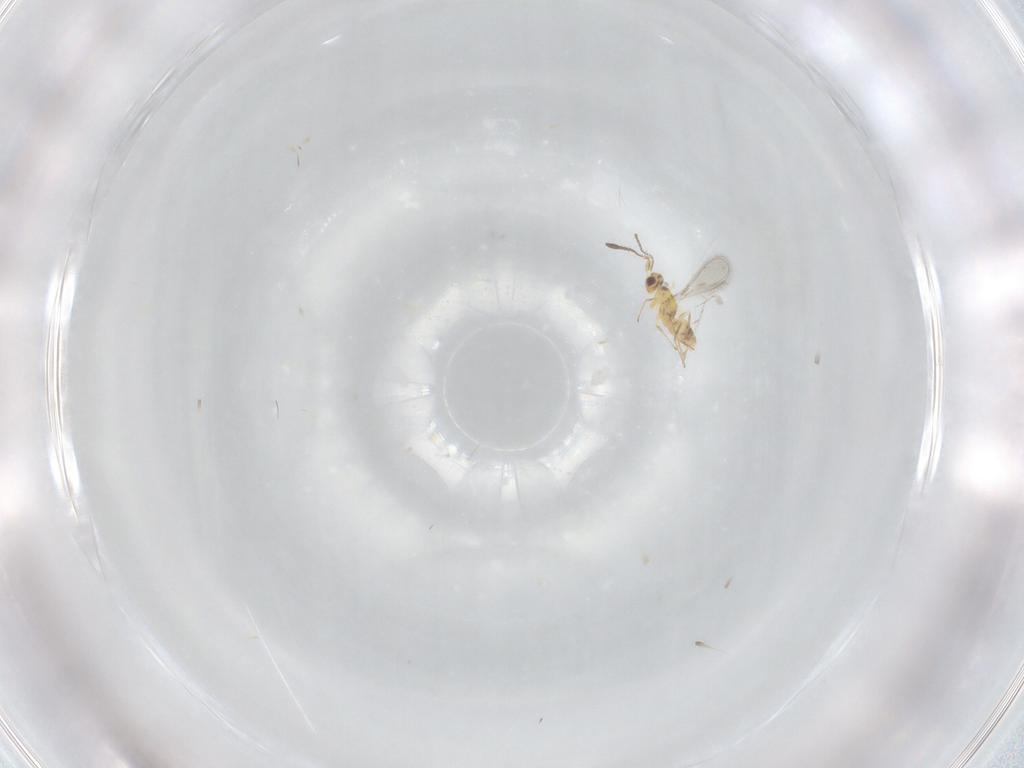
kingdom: Animalia
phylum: Arthropoda
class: Insecta
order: Hymenoptera
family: Mymaridae
